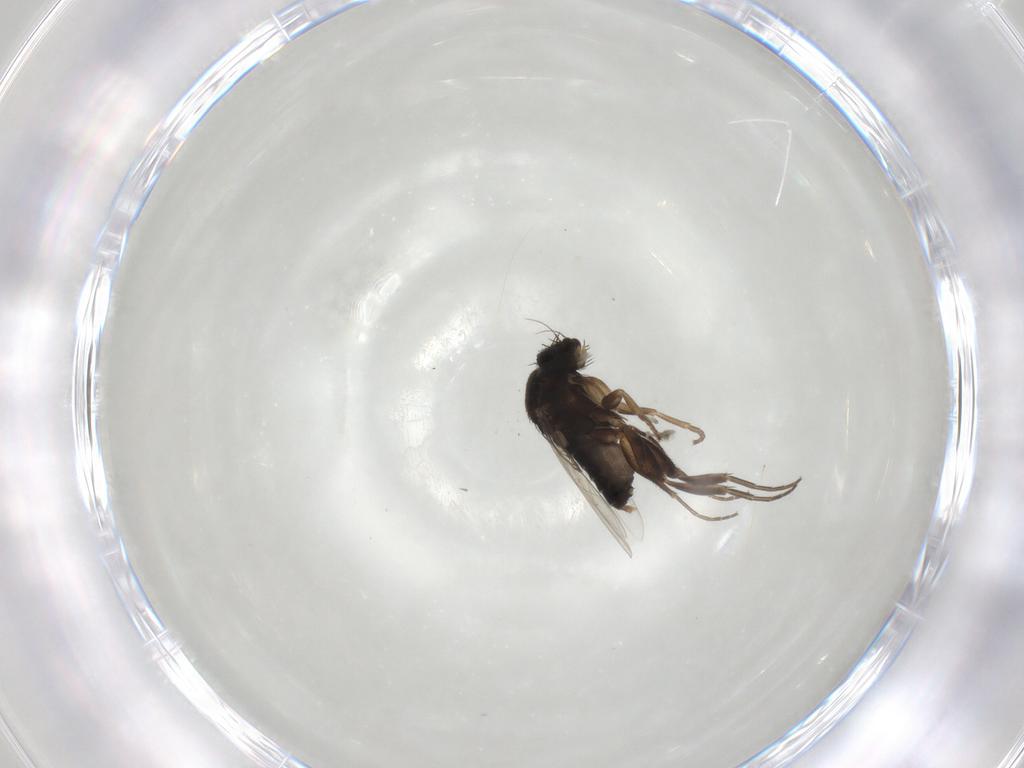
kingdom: Animalia
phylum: Arthropoda
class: Insecta
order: Diptera
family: Phoridae
